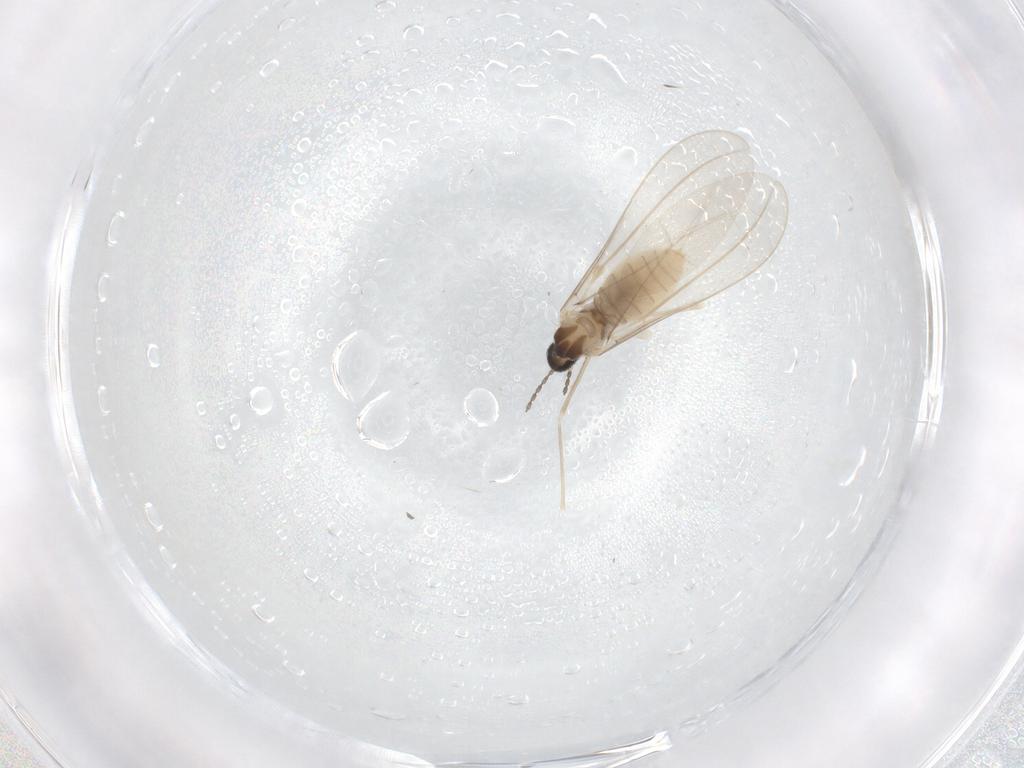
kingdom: Animalia
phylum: Arthropoda
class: Insecta
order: Diptera
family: Cecidomyiidae
